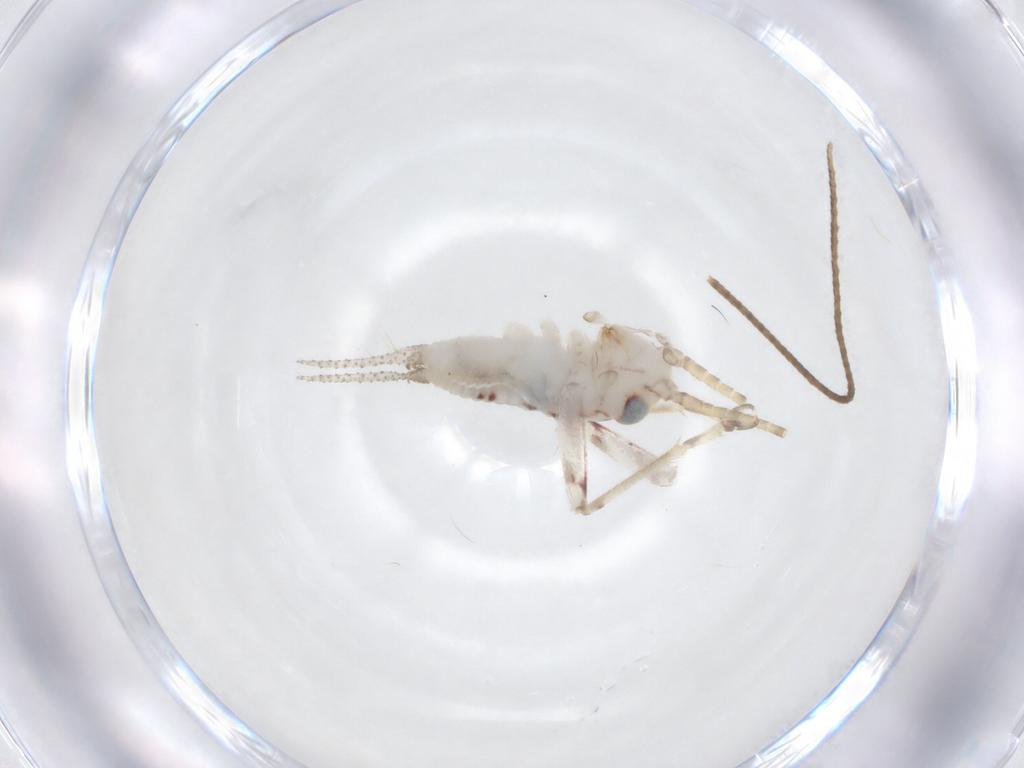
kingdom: Animalia
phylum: Arthropoda
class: Insecta
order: Orthoptera
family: Trigonidiidae
